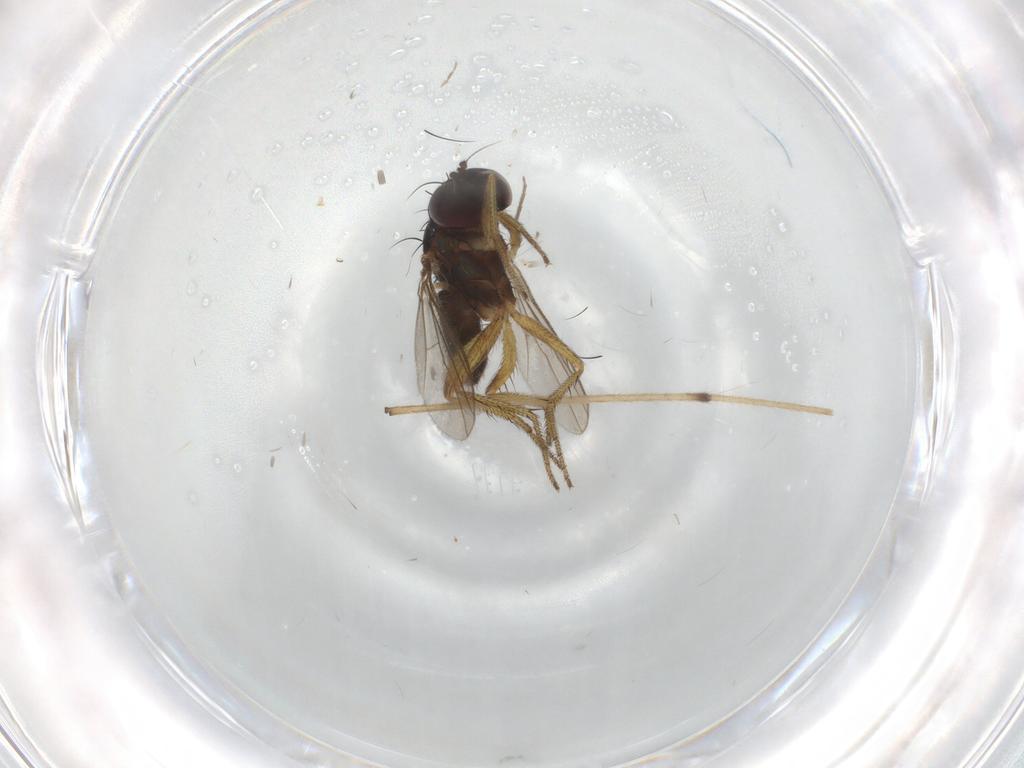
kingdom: Animalia
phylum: Arthropoda
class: Insecta
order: Diptera
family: Chironomidae
